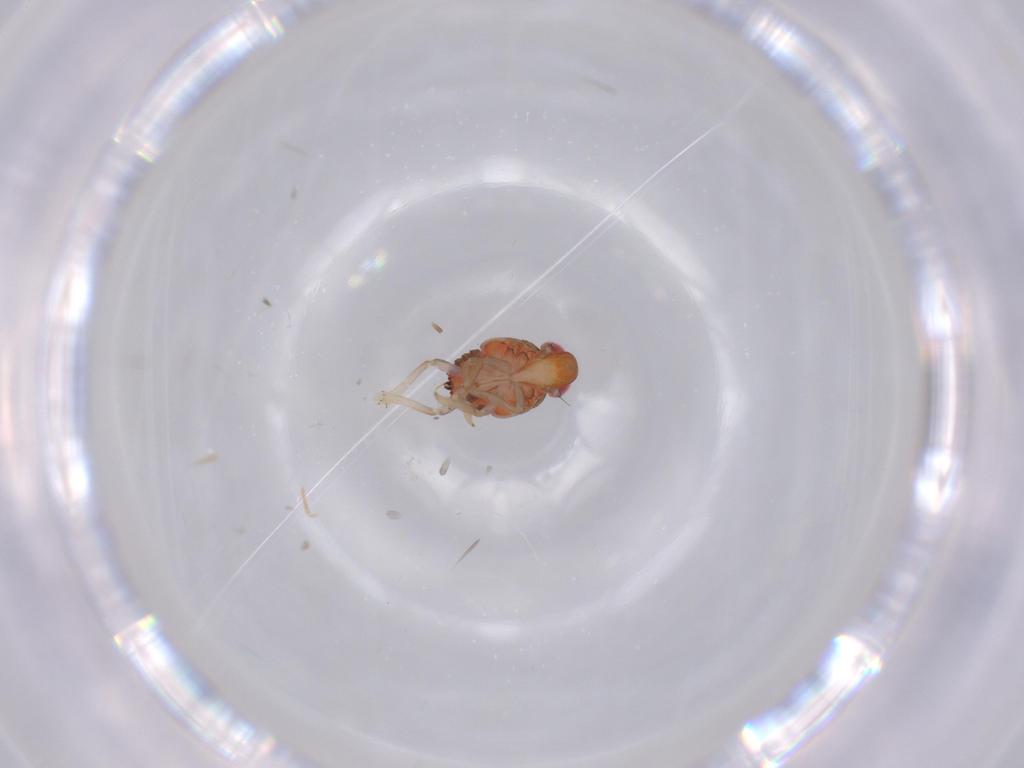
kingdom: Animalia
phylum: Arthropoda
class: Insecta
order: Hemiptera
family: Issidae
